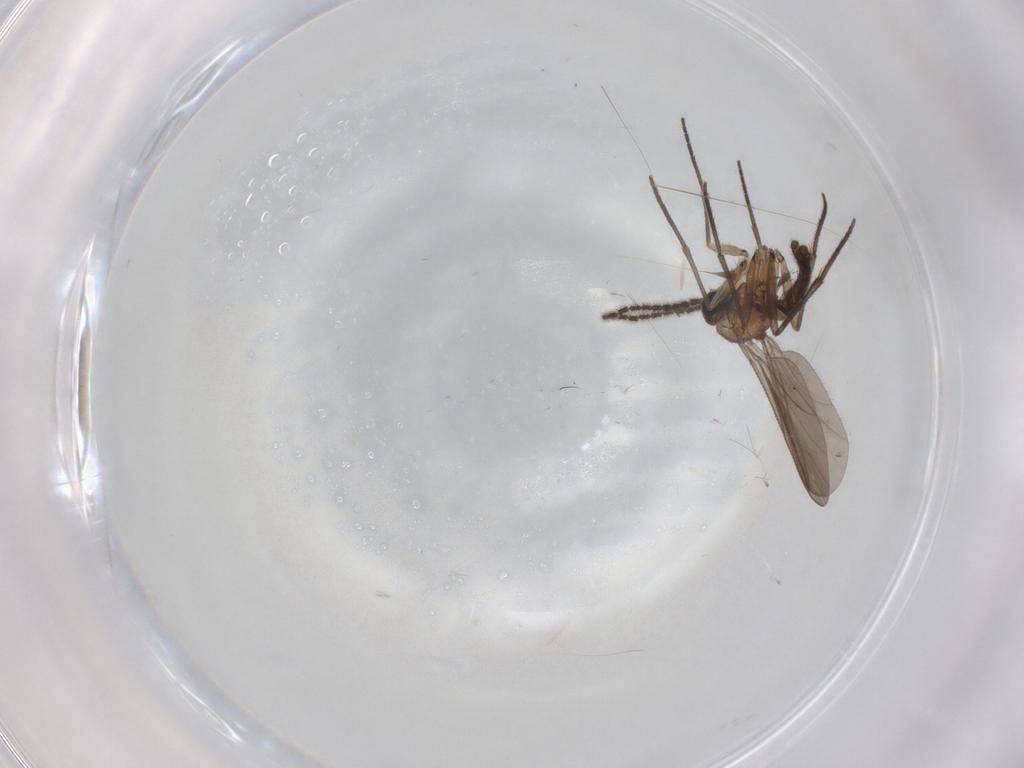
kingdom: Animalia
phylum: Arthropoda
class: Insecta
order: Diptera
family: Sciaridae
